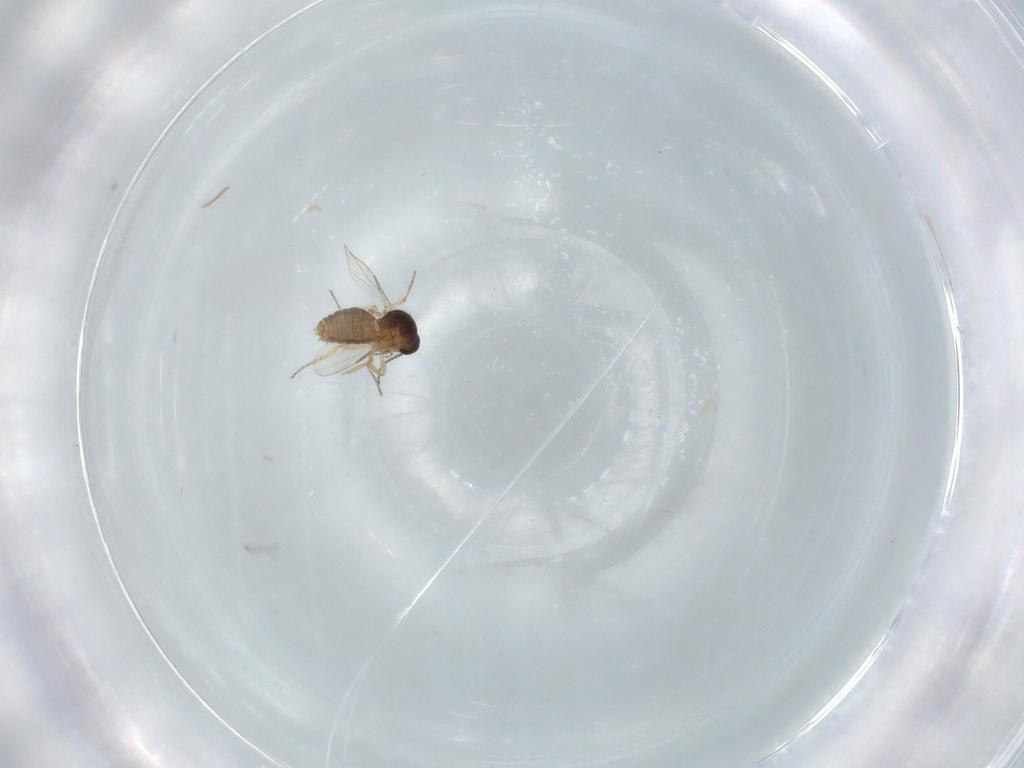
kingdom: Animalia
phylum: Arthropoda
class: Insecta
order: Diptera
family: Ceratopogonidae
